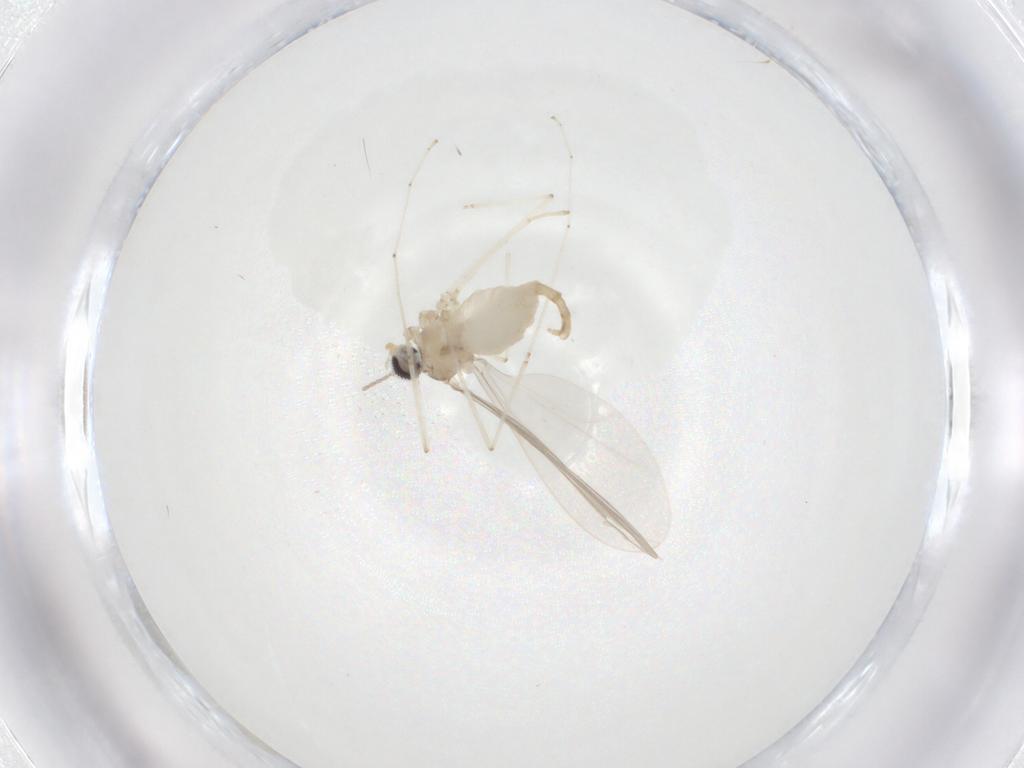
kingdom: Animalia
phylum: Arthropoda
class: Insecta
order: Diptera
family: Cecidomyiidae
